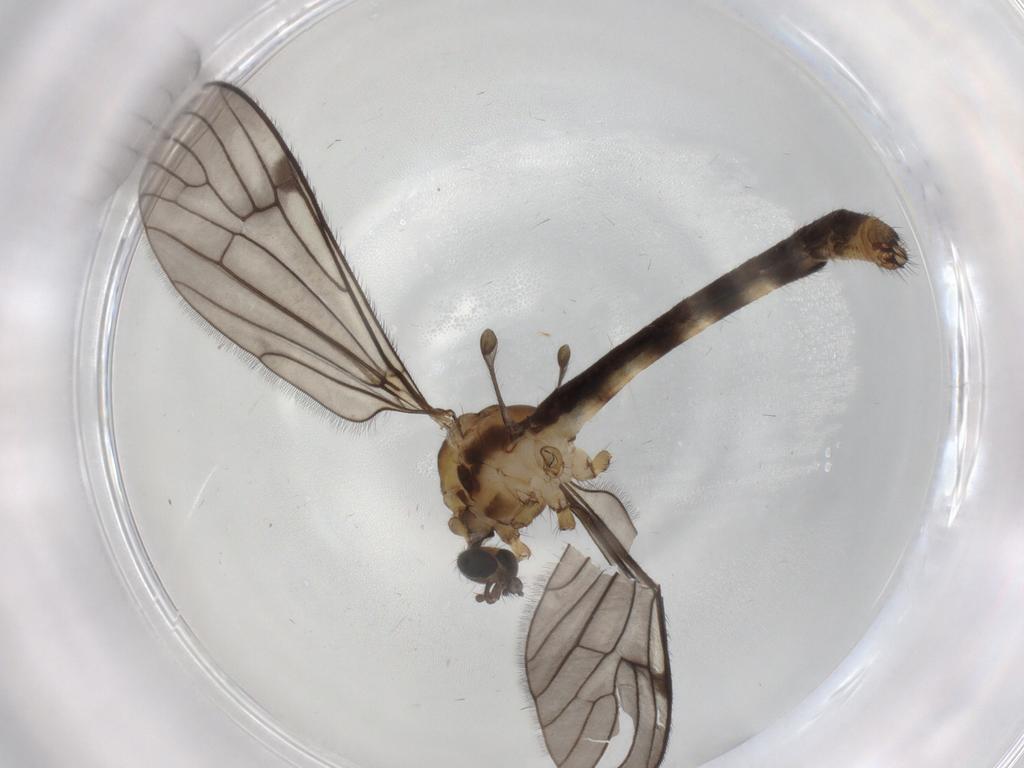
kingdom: Animalia
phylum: Arthropoda
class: Insecta
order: Diptera
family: Limoniidae
